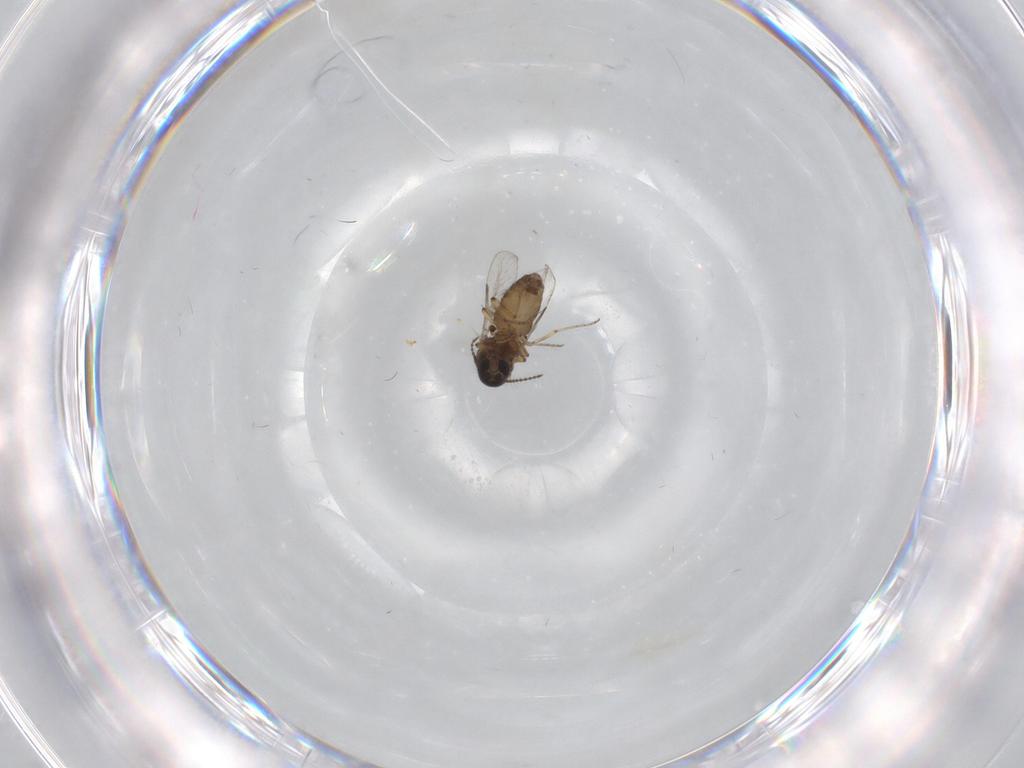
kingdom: Animalia
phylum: Arthropoda
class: Insecta
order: Diptera
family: Ceratopogonidae
